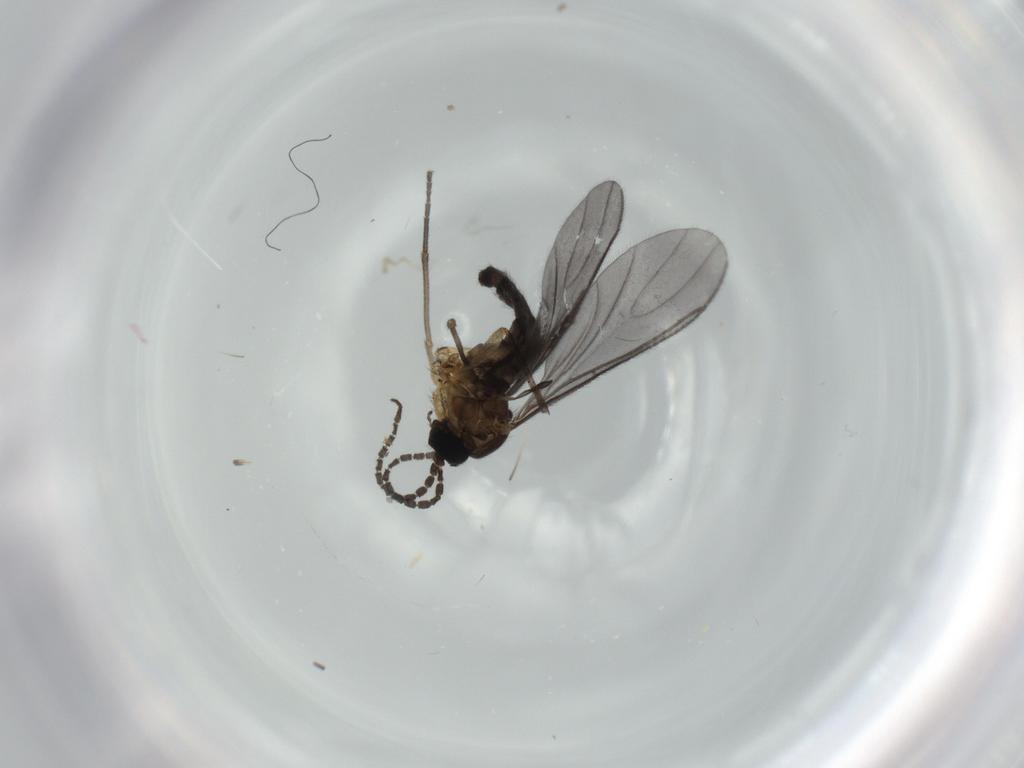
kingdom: Animalia
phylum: Arthropoda
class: Insecta
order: Diptera
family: Sciaridae
